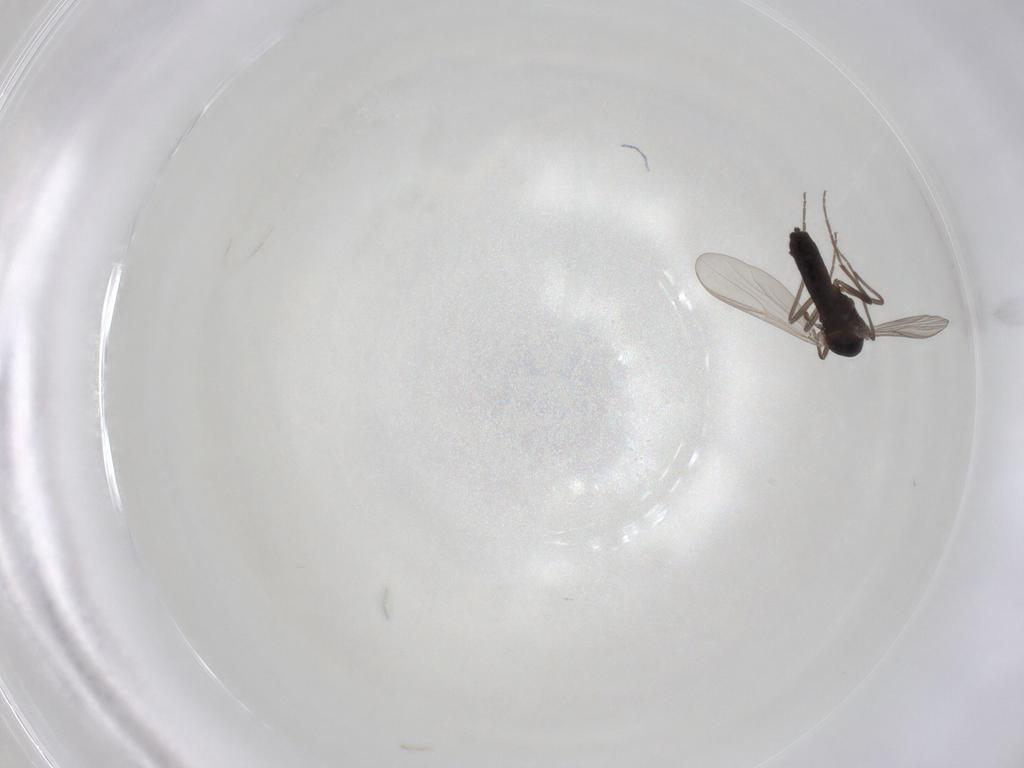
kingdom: Animalia
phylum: Arthropoda
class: Insecta
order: Diptera
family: Chironomidae
